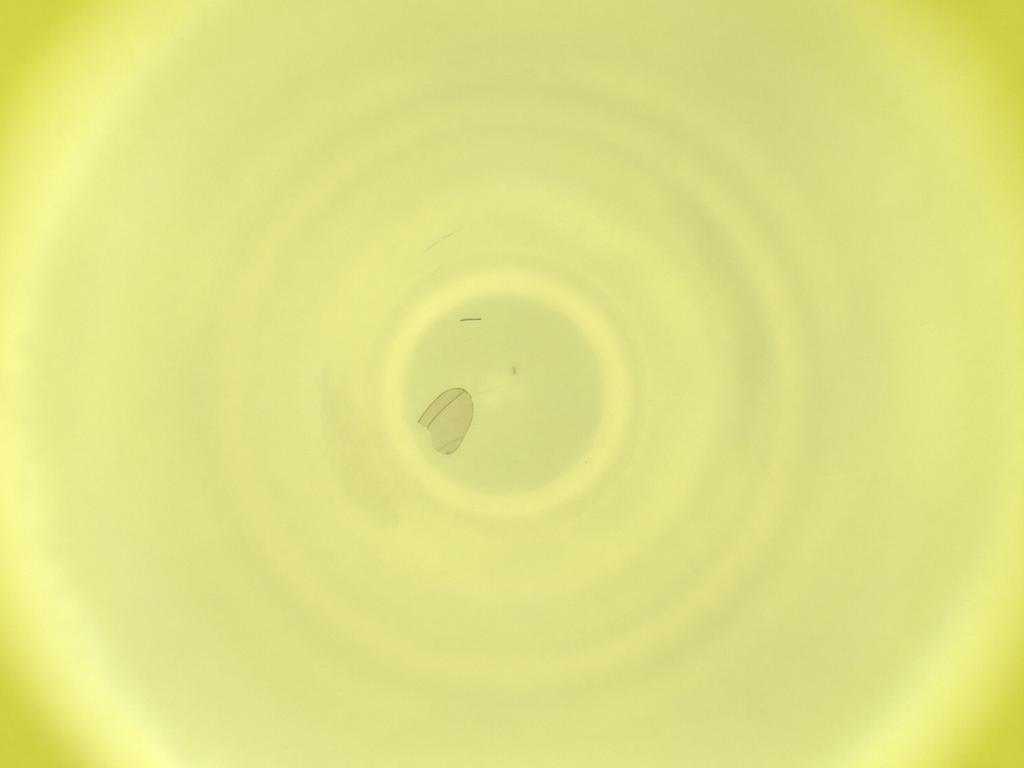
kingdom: Animalia
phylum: Arthropoda
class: Insecta
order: Diptera
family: Cecidomyiidae
